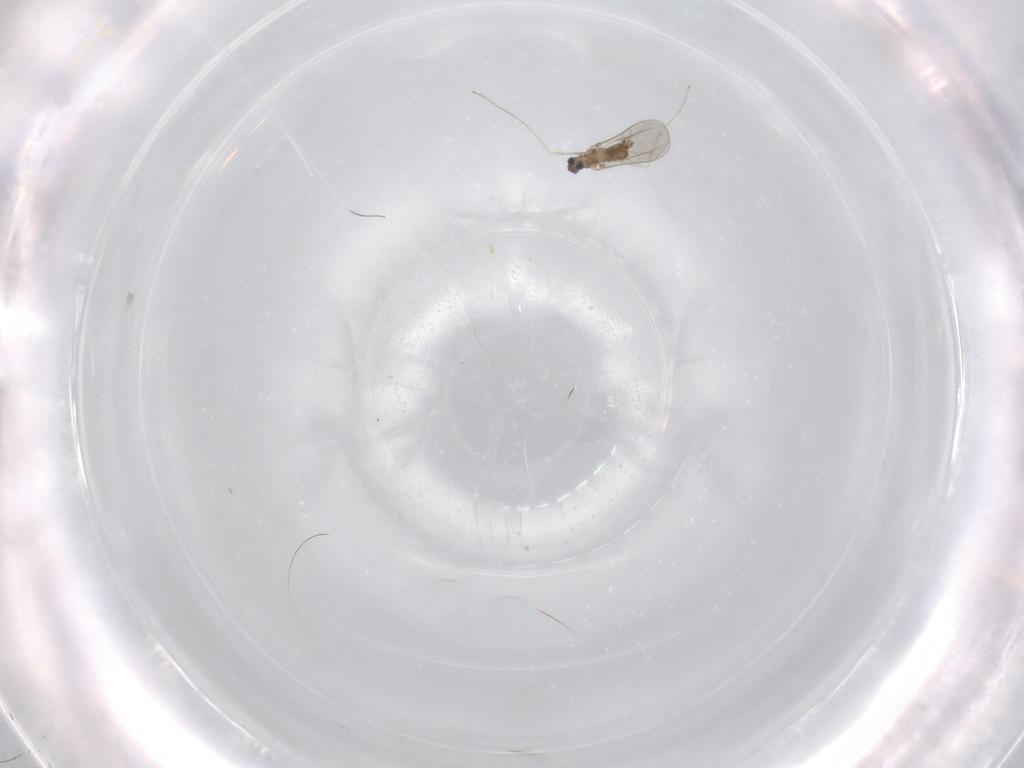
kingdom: Animalia
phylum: Arthropoda
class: Insecta
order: Diptera
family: Cecidomyiidae
